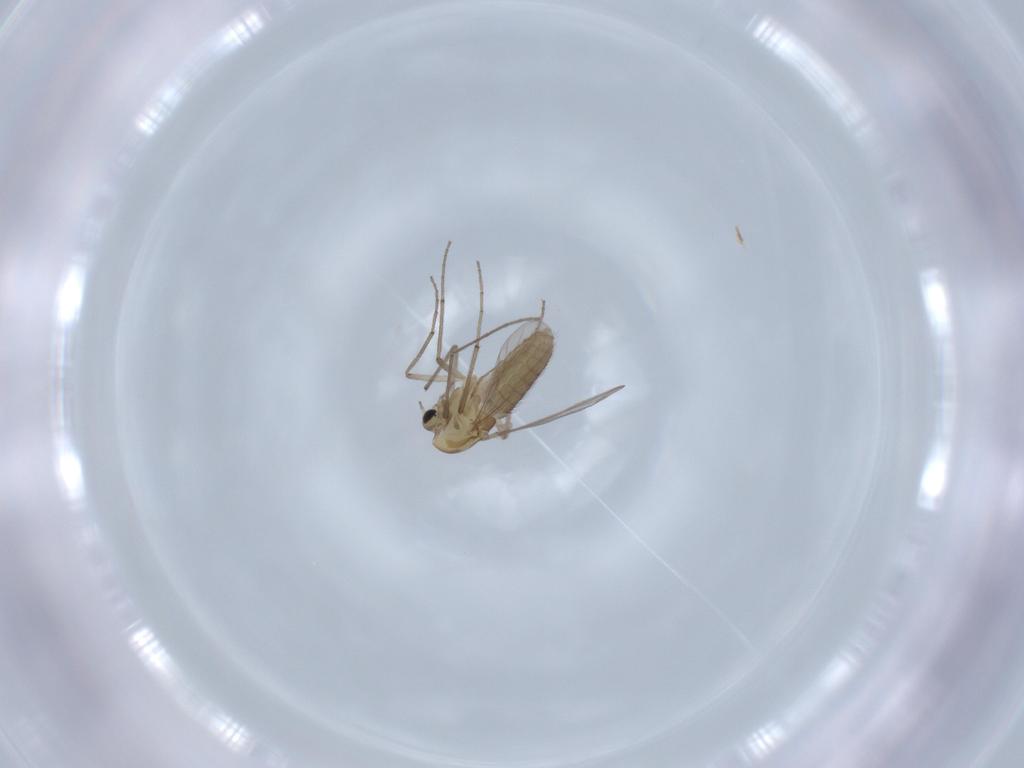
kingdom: Animalia
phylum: Arthropoda
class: Insecta
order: Diptera
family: Chironomidae
